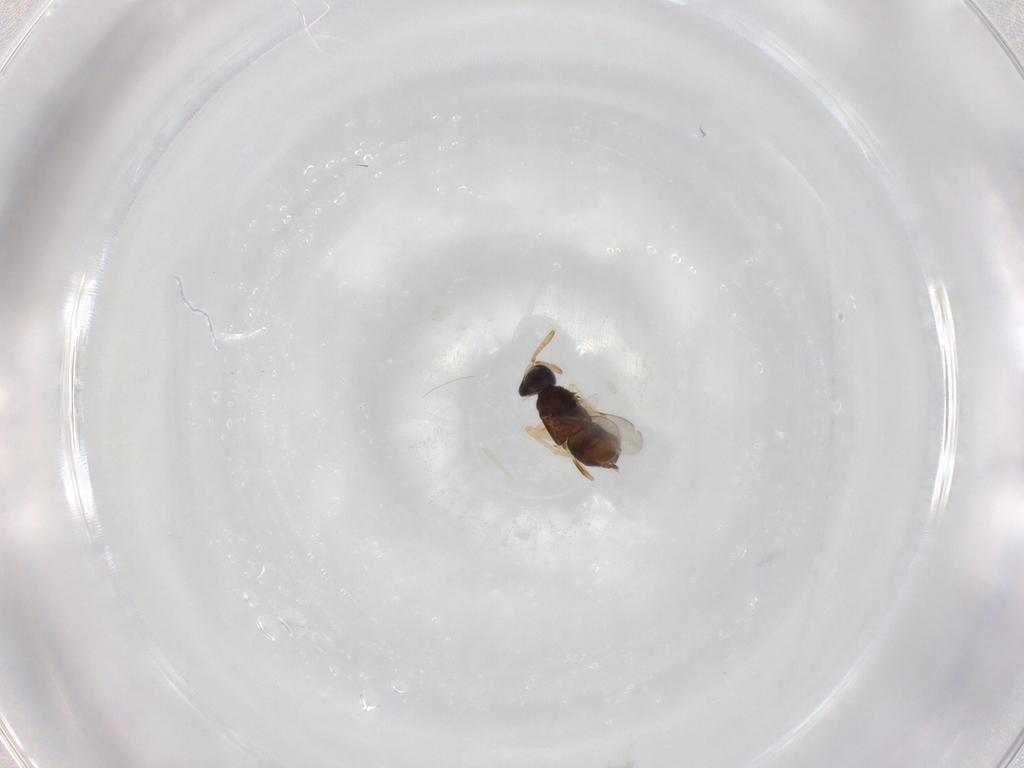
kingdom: Animalia
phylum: Arthropoda
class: Insecta
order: Hymenoptera
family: Encyrtidae
